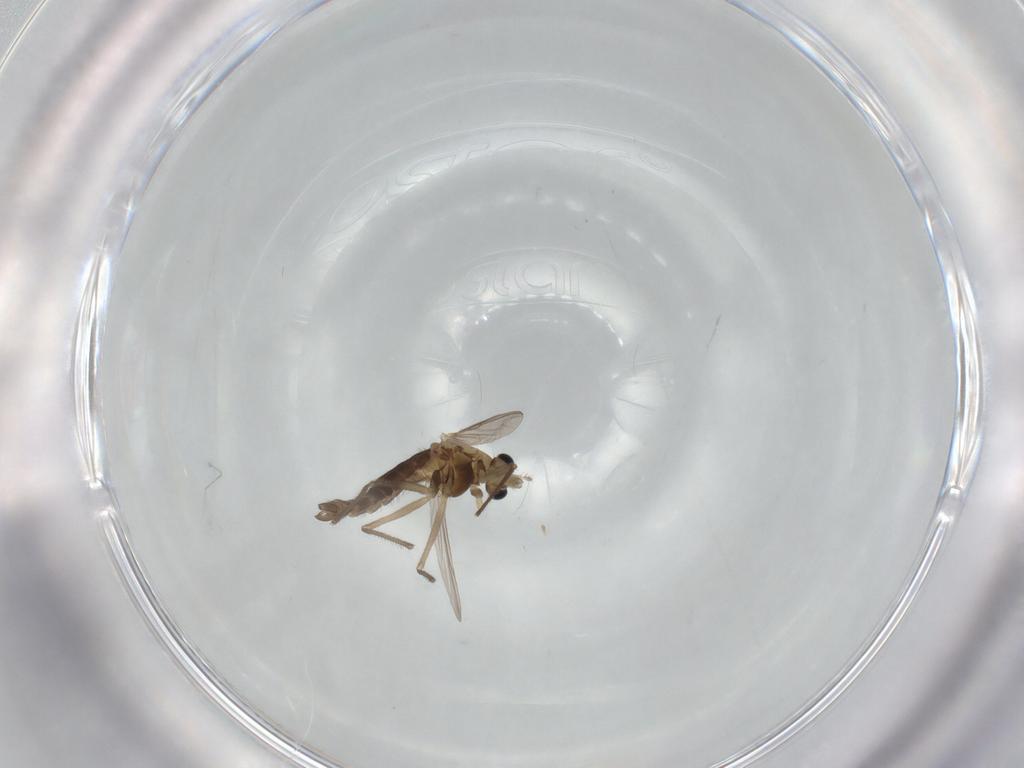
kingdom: Animalia
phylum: Arthropoda
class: Insecta
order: Diptera
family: Chironomidae
